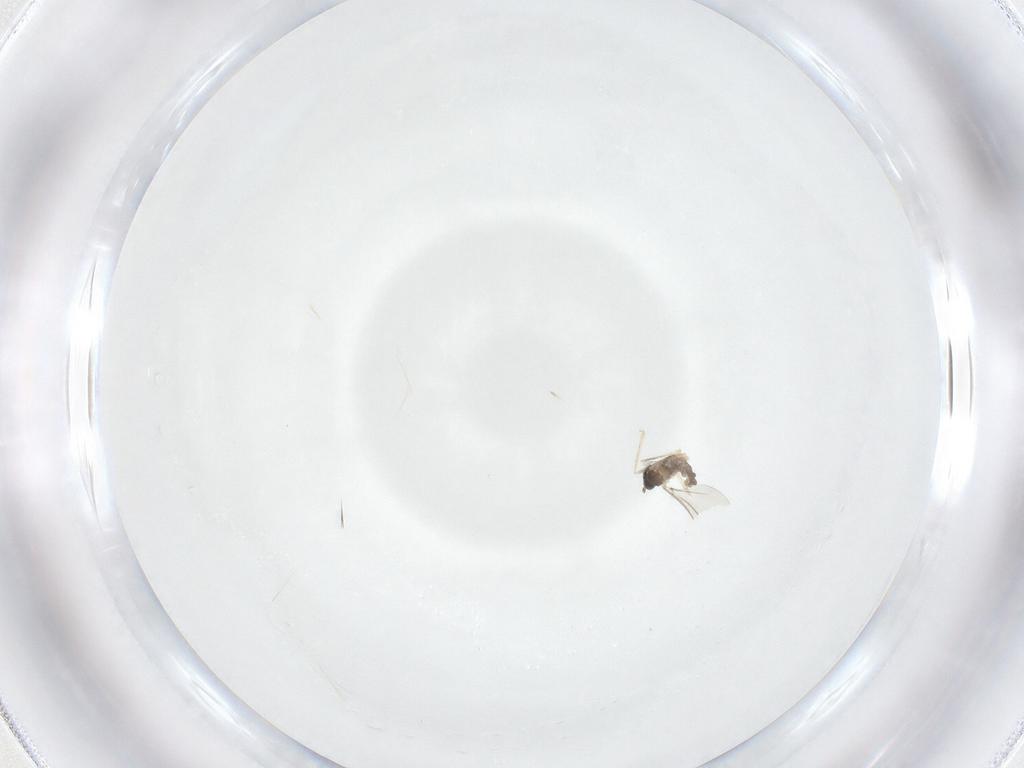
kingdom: Animalia
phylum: Arthropoda
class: Insecta
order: Diptera
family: Cecidomyiidae
